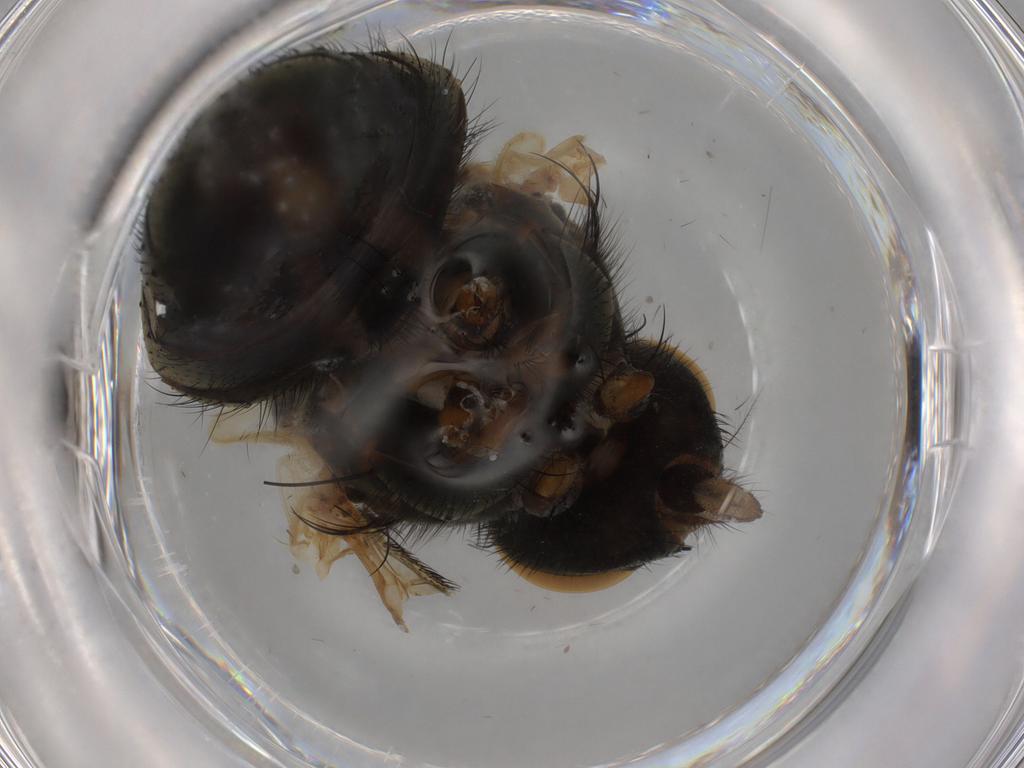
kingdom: Animalia
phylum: Arthropoda
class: Insecta
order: Diptera
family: Muscidae
